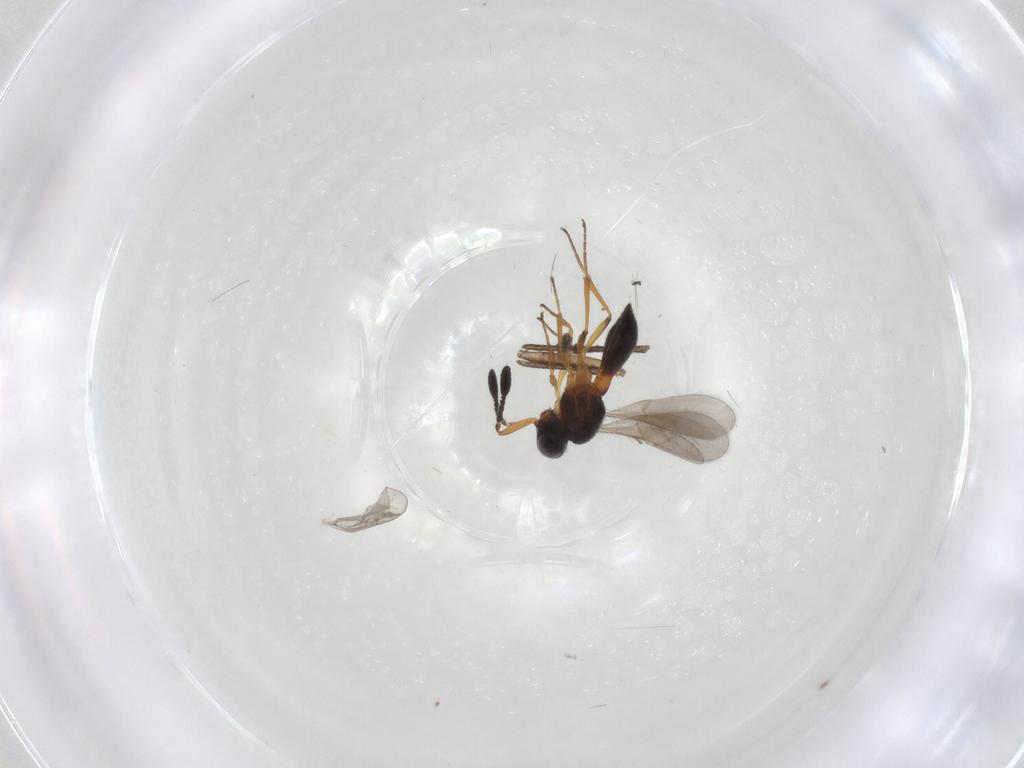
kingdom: Animalia
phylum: Arthropoda
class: Insecta
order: Hymenoptera
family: Scelionidae
